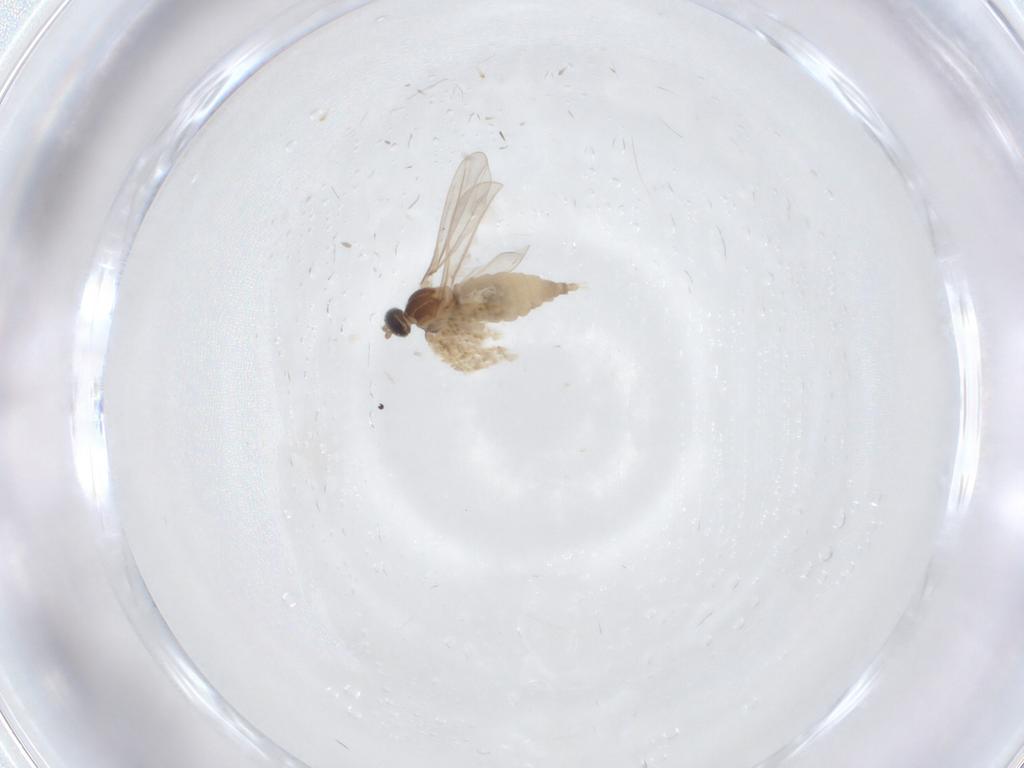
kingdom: Animalia
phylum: Arthropoda
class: Insecta
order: Diptera
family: Cecidomyiidae
